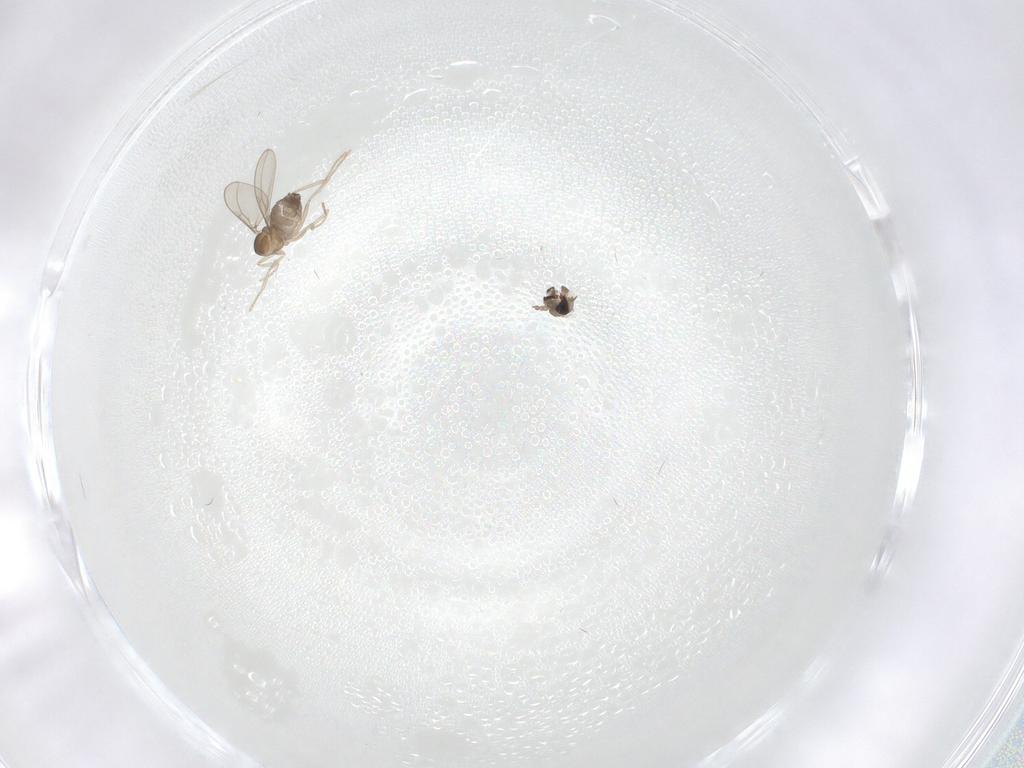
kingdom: Animalia
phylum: Arthropoda
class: Insecta
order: Diptera
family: Cecidomyiidae
